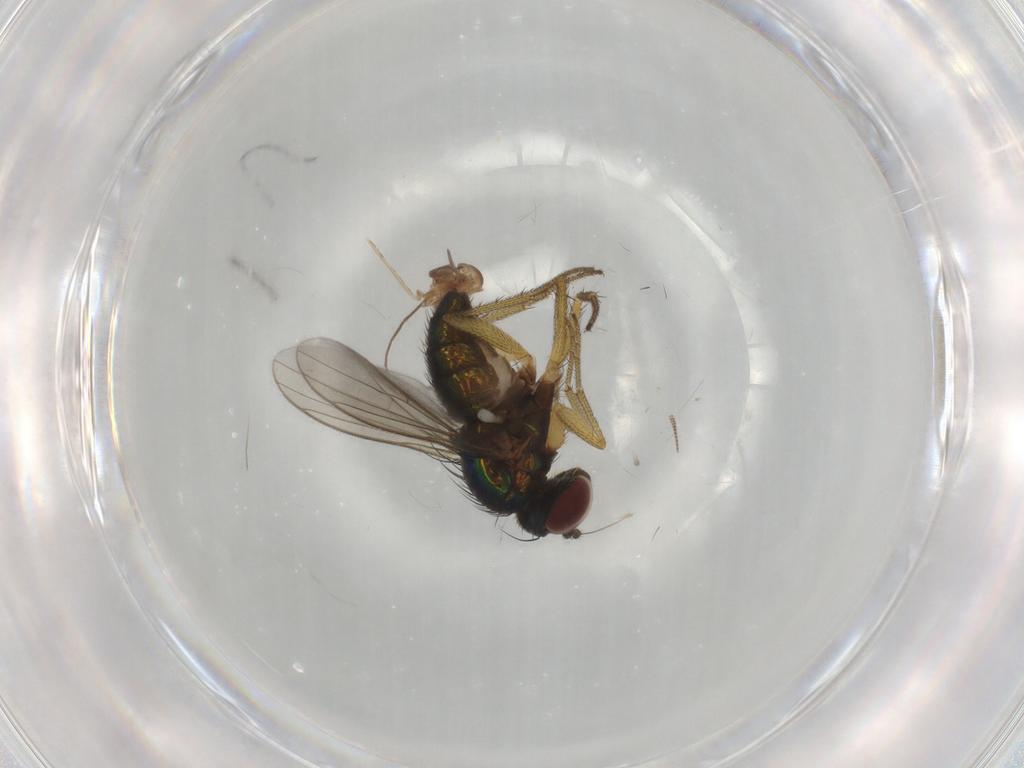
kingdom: Animalia
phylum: Arthropoda
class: Insecta
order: Diptera
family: Dolichopodidae
